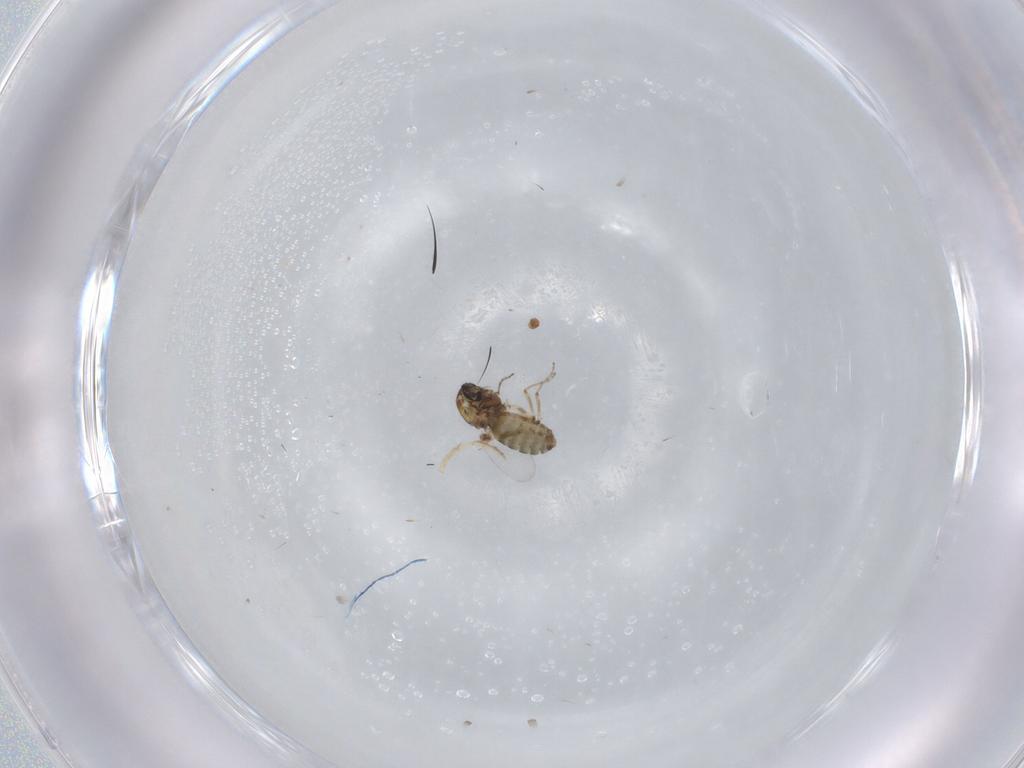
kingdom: Animalia
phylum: Arthropoda
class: Insecta
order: Diptera
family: Ceratopogonidae
